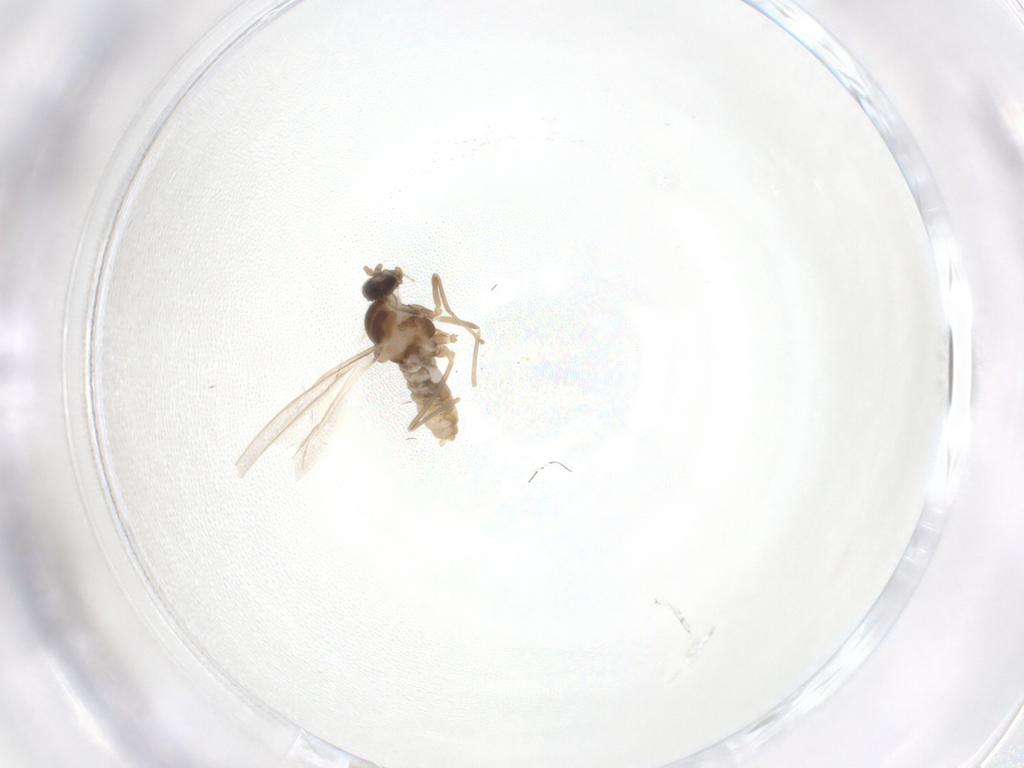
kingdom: Animalia
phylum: Arthropoda
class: Insecta
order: Diptera
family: Cecidomyiidae
